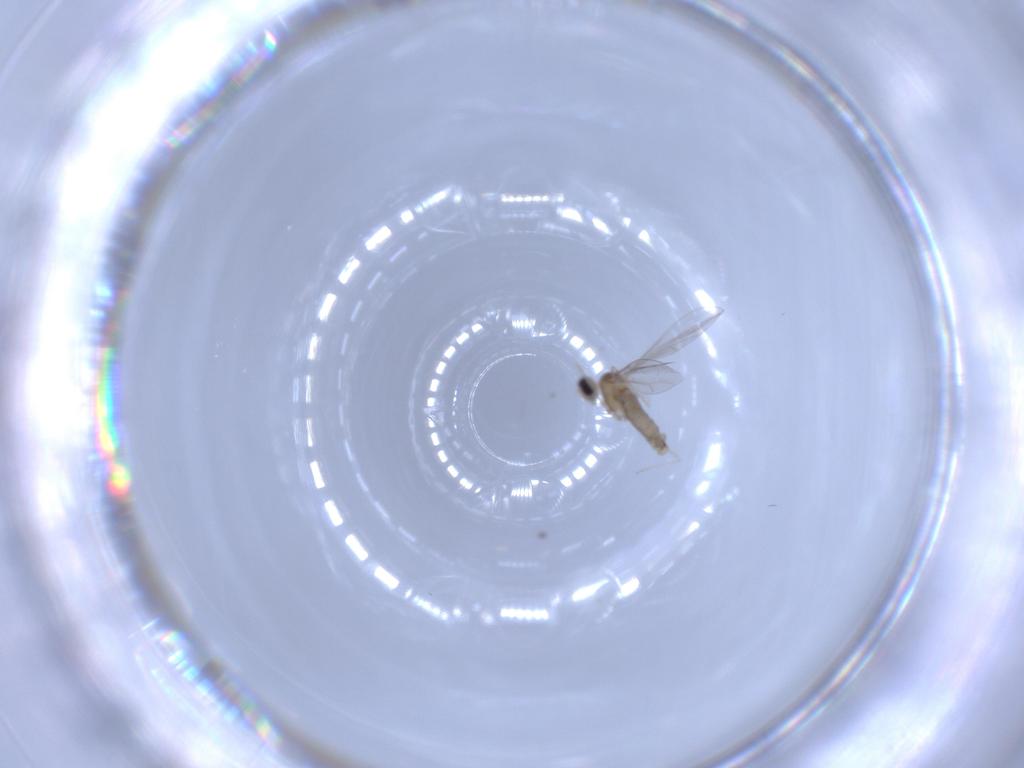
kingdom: Animalia
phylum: Arthropoda
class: Insecta
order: Diptera
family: Cecidomyiidae
